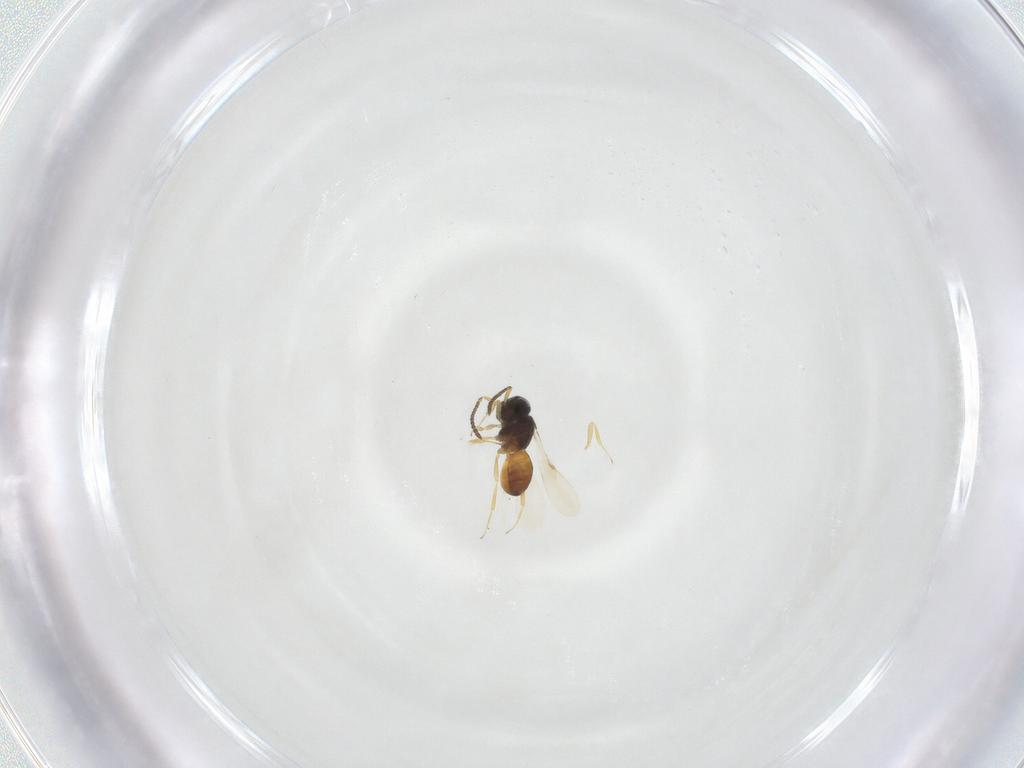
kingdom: Animalia
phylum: Arthropoda
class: Insecta
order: Hymenoptera
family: Scelionidae
